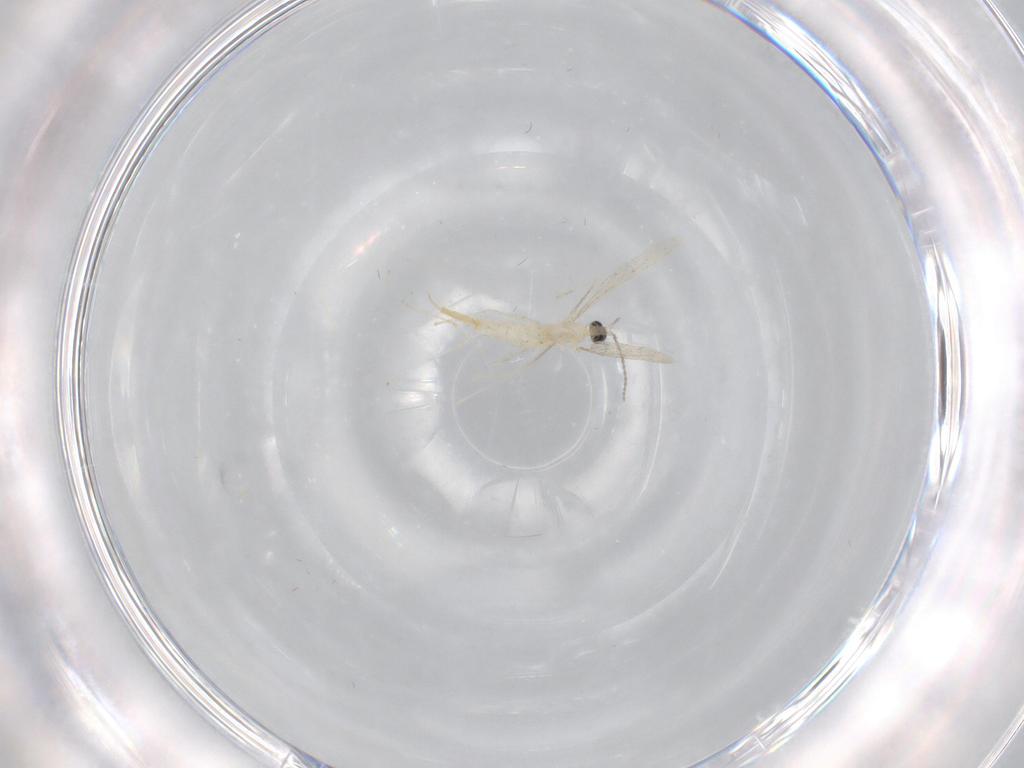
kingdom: Animalia
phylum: Arthropoda
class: Insecta
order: Diptera
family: Cecidomyiidae
